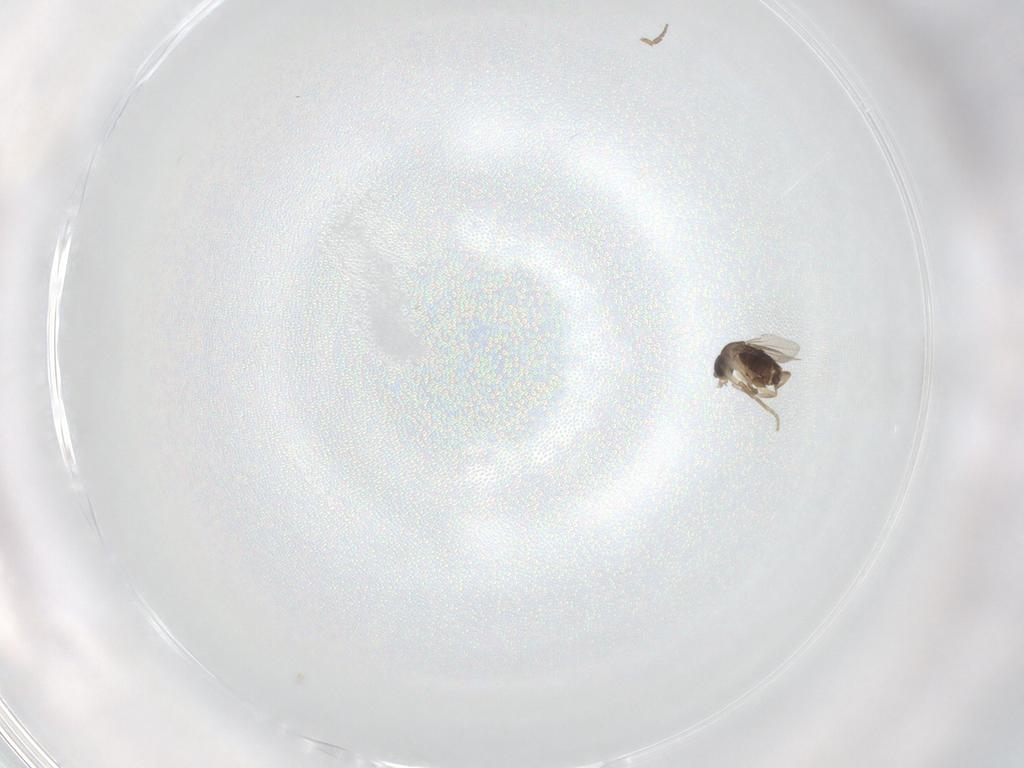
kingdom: Animalia
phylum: Arthropoda
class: Insecta
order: Diptera
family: Phoridae
